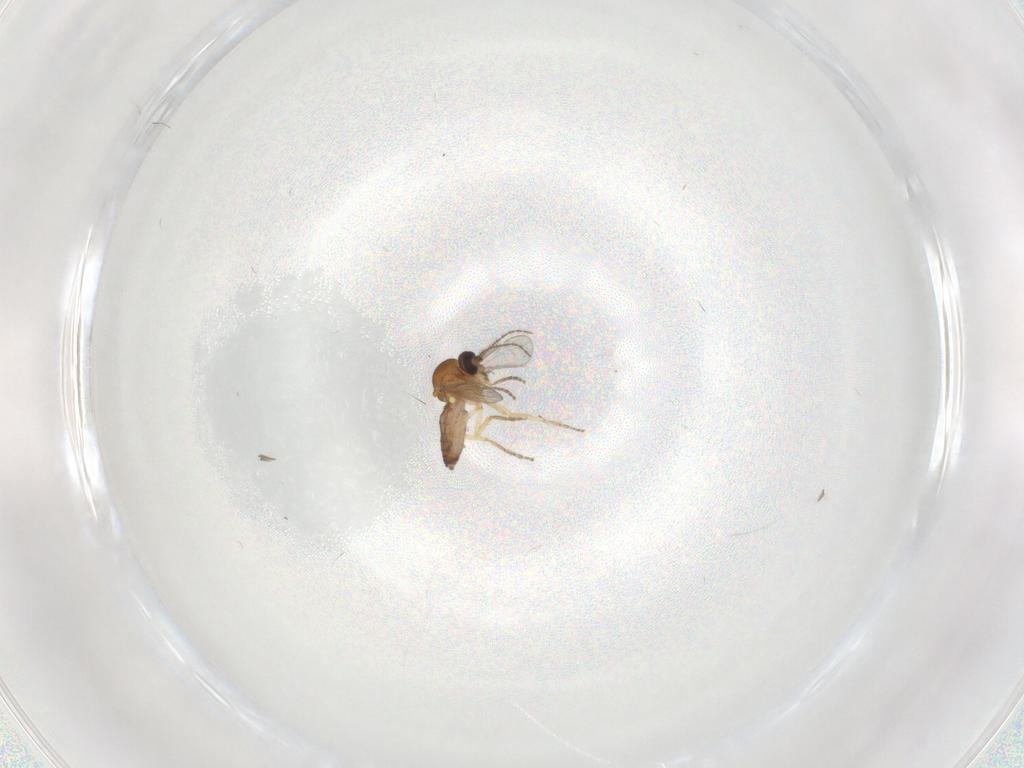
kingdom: Animalia
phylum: Arthropoda
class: Insecta
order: Diptera
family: Ceratopogonidae
